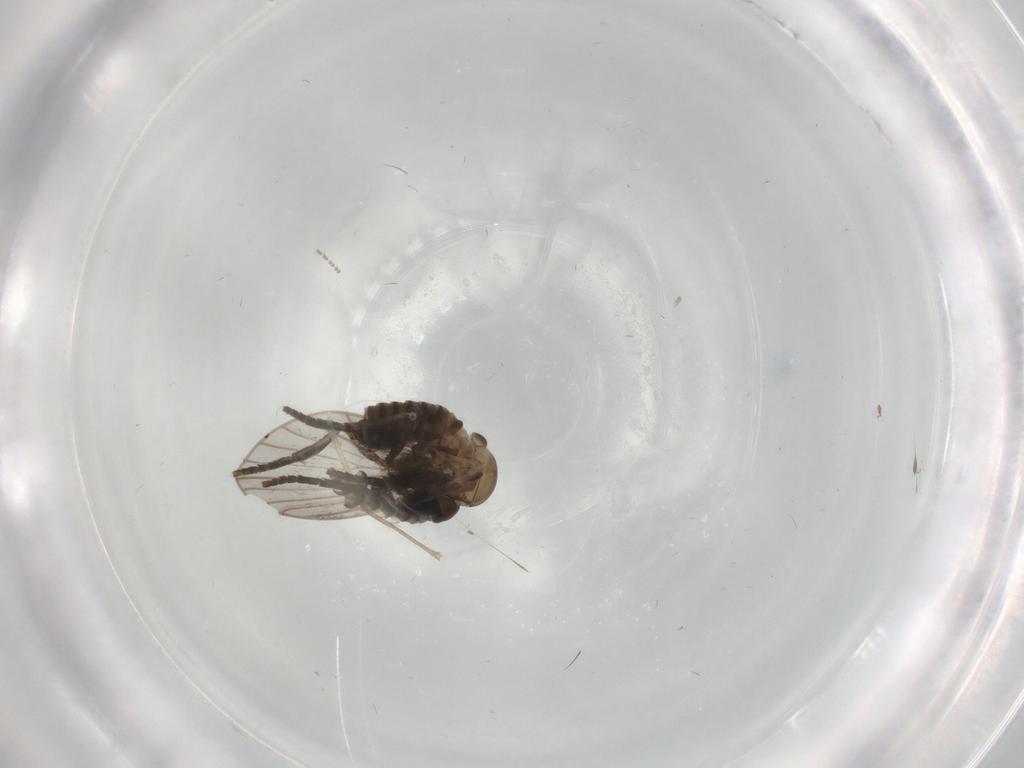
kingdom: Animalia
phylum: Arthropoda
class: Insecta
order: Diptera
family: Psychodidae
